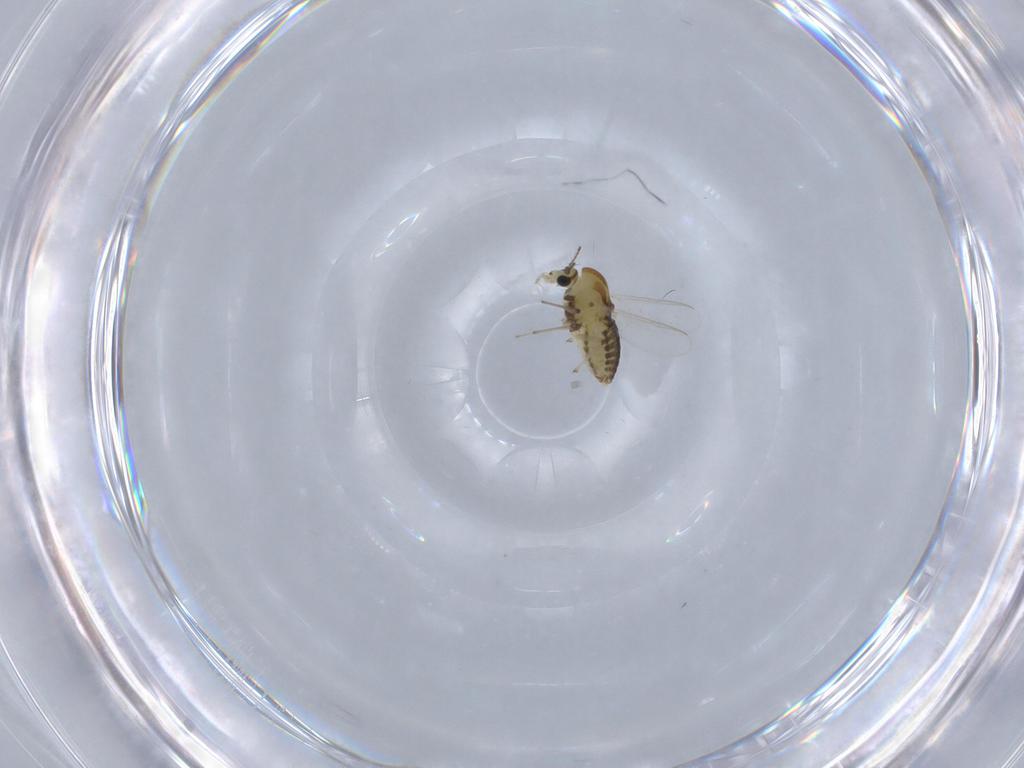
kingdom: Animalia
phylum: Arthropoda
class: Insecta
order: Diptera
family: Chironomidae
